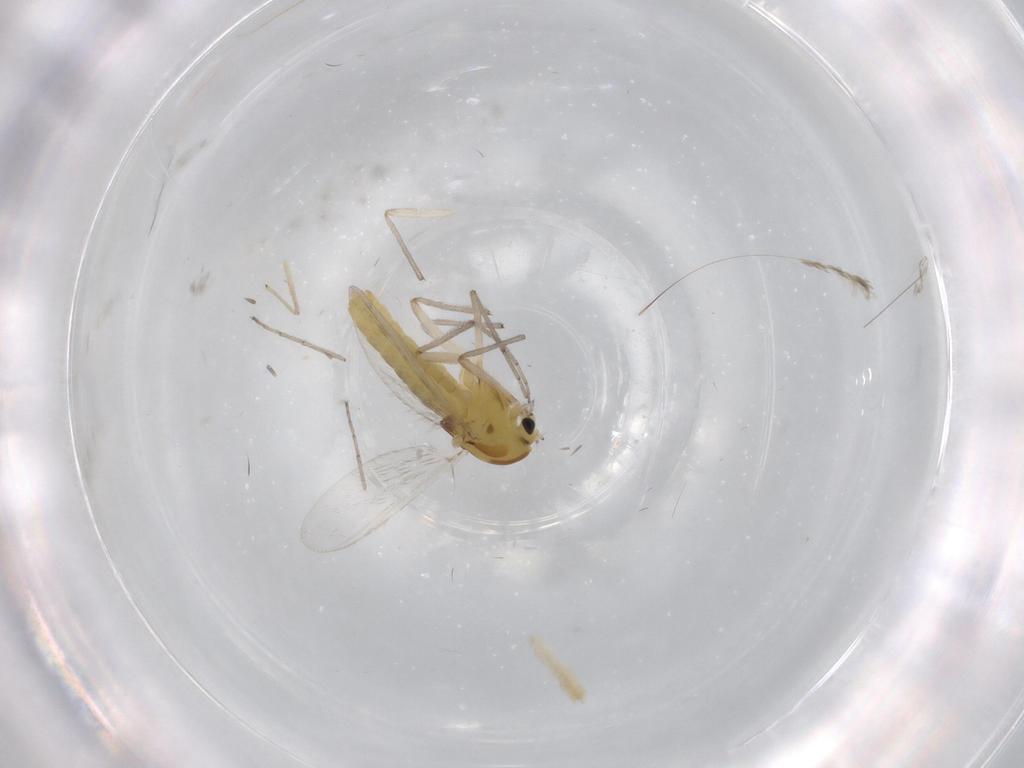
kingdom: Animalia
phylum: Arthropoda
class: Insecta
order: Diptera
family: Chironomidae
